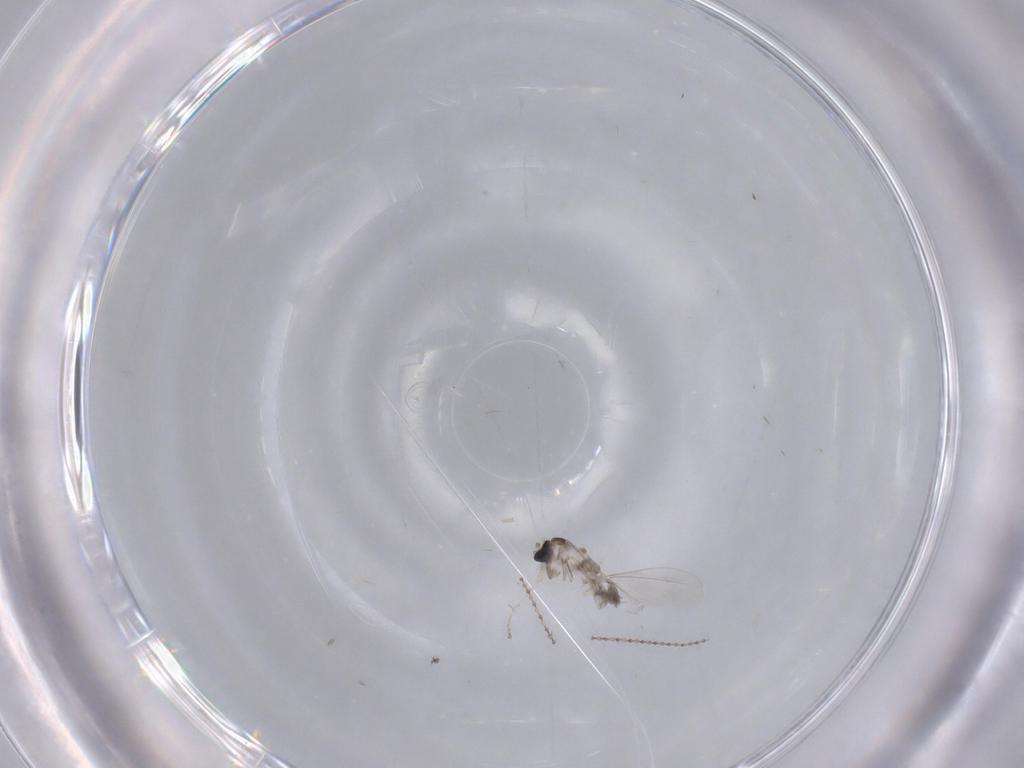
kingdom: Animalia
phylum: Arthropoda
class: Insecta
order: Diptera
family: Cecidomyiidae
